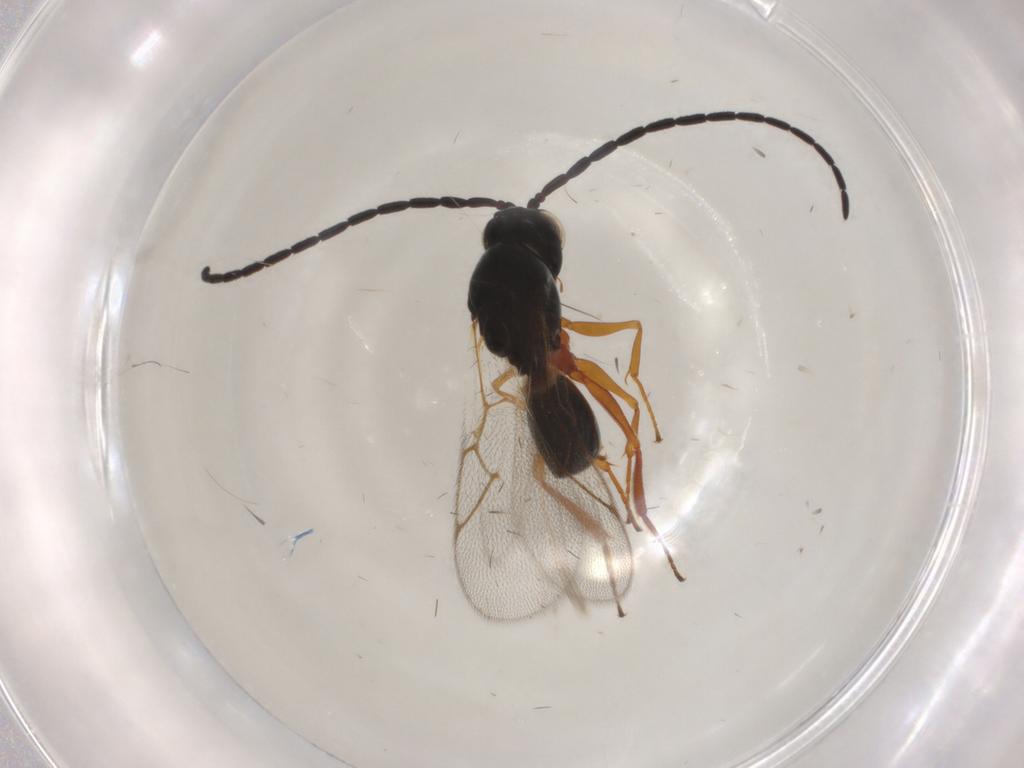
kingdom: Animalia
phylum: Arthropoda
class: Insecta
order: Hymenoptera
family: Figitidae
